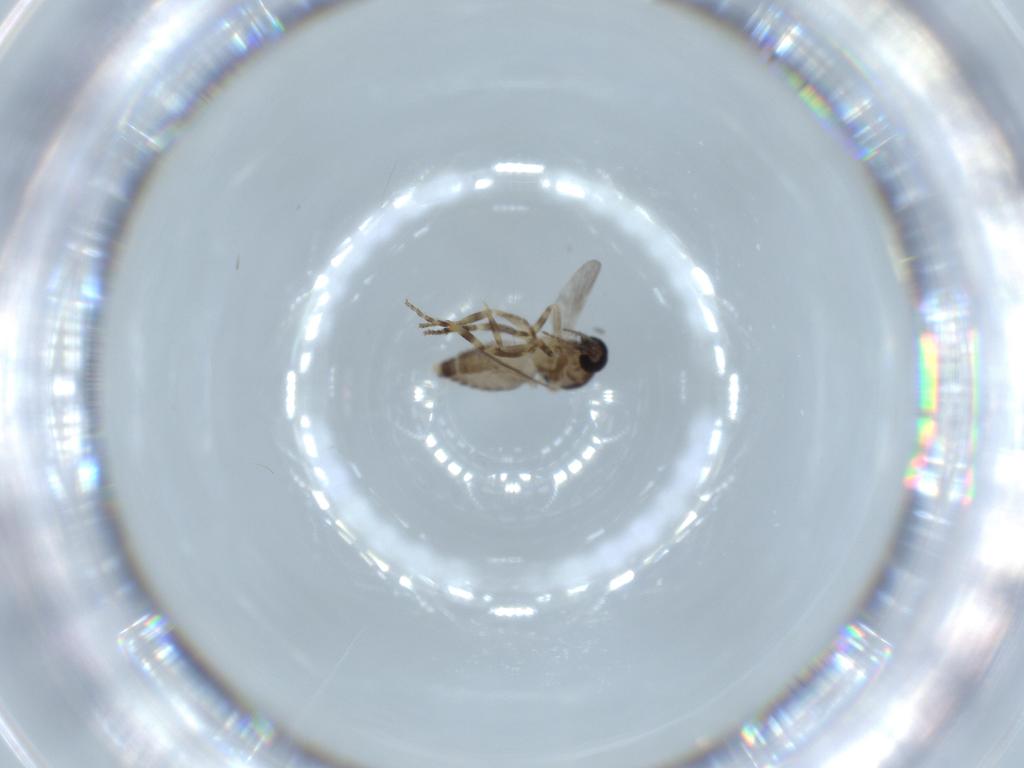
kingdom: Animalia
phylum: Arthropoda
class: Insecta
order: Diptera
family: Ceratopogonidae
